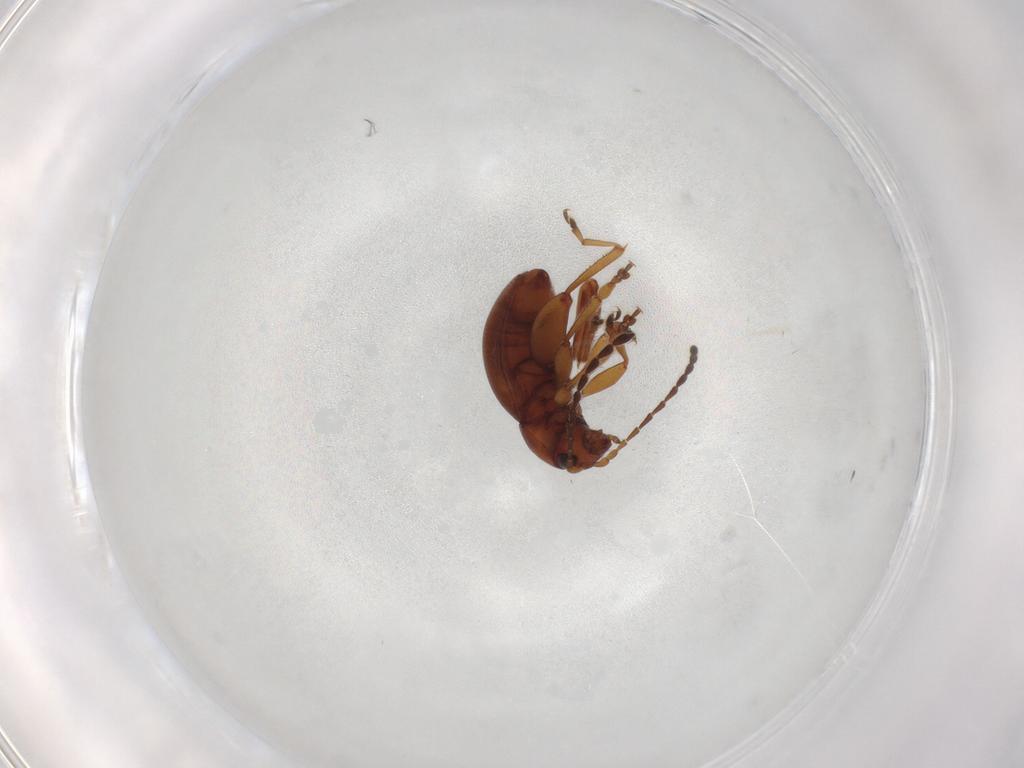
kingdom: Animalia
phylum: Arthropoda
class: Insecta
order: Coleoptera
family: Chrysomelidae
